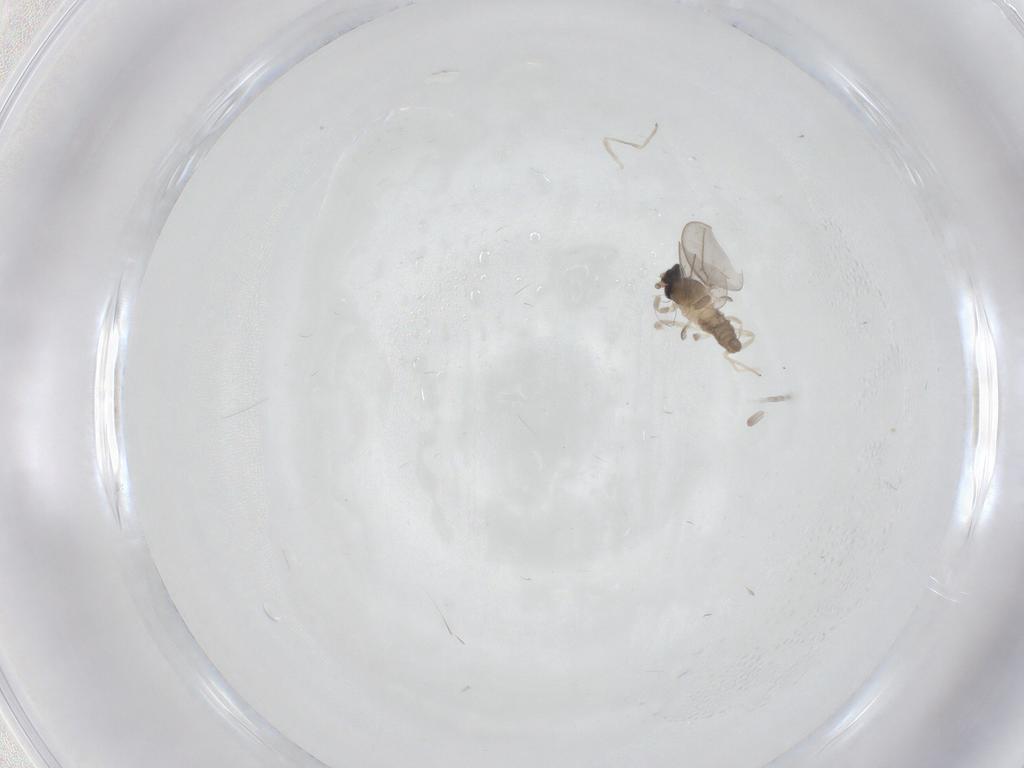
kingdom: Animalia
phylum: Arthropoda
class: Insecta
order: Diptera
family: Cecidomyiidae
